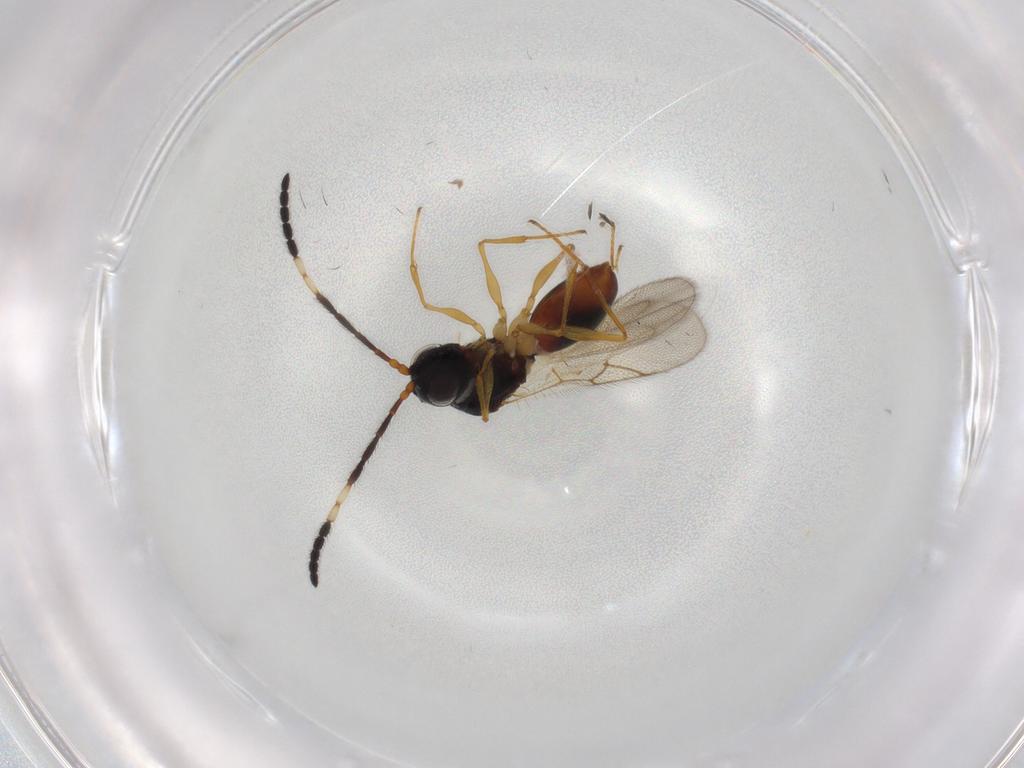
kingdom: Animalia
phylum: Arthropoda
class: Insecta
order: Hymenoptera
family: Figitidae
